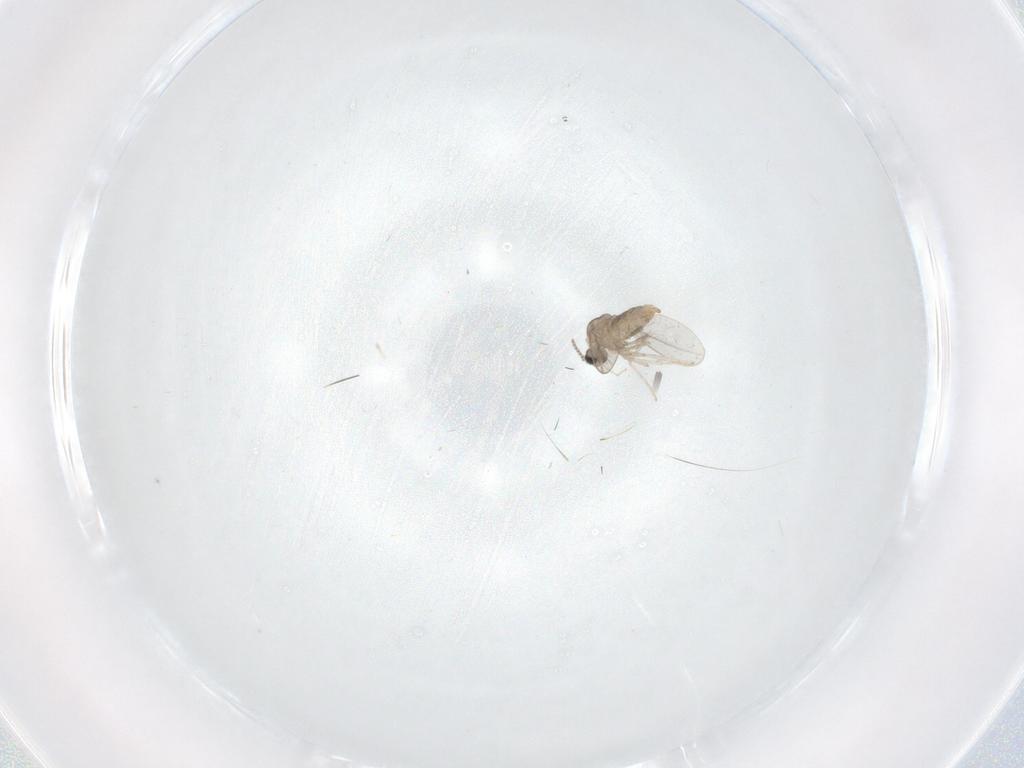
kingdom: Animalia
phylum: Arthropoda
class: Insecta
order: Diptera
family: Cecidomyiidae
